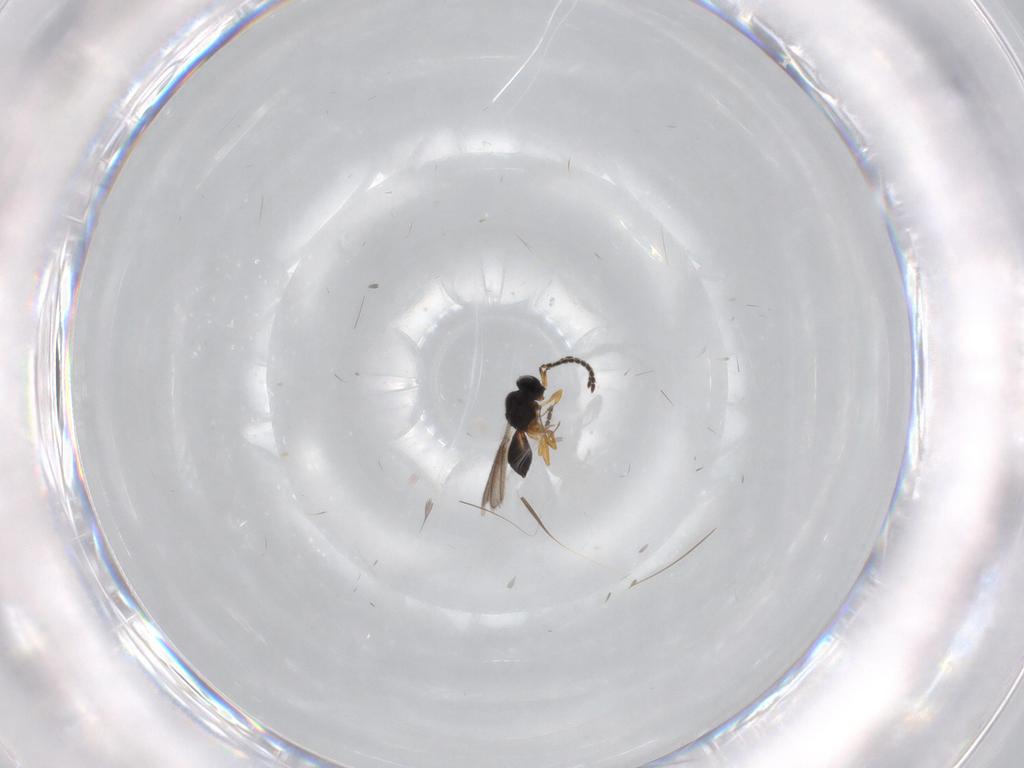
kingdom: Animalia
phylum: Arthropoda
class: Insecta
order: Hymenoptera
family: Scelionidae
